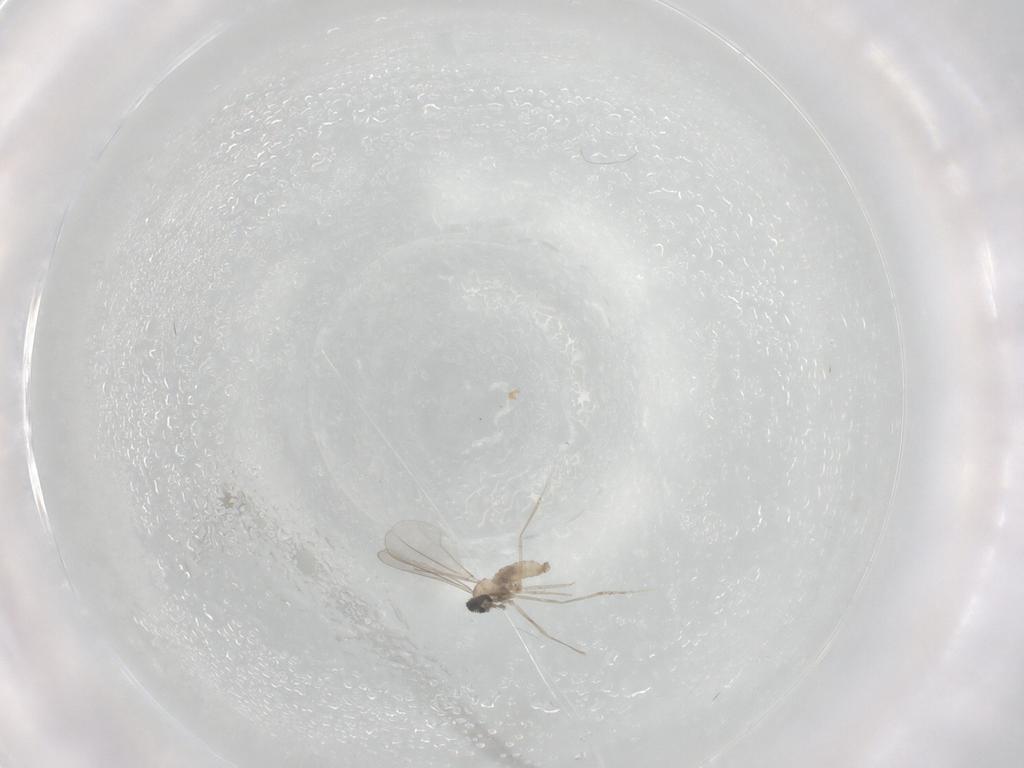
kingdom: Animalia
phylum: Arthropoda
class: Insecta
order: Diptera
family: Cecidomyiidae
